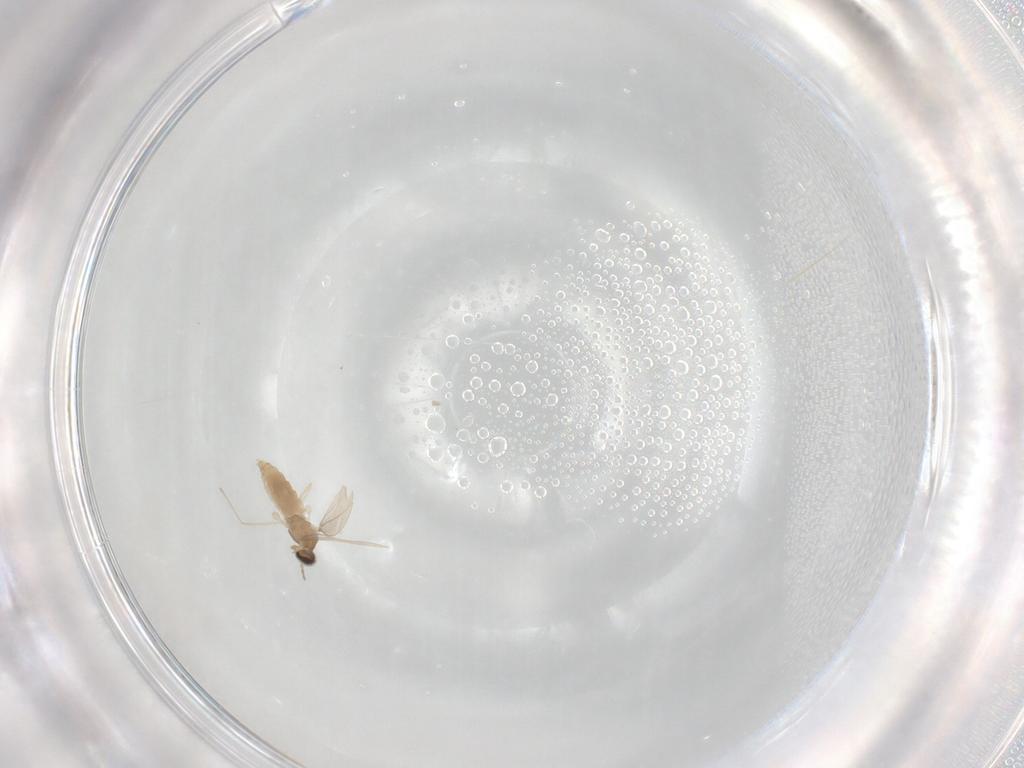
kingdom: Animalia
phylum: Arthropoda
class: Insecta
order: Diptera
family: Cecidomyiidae
